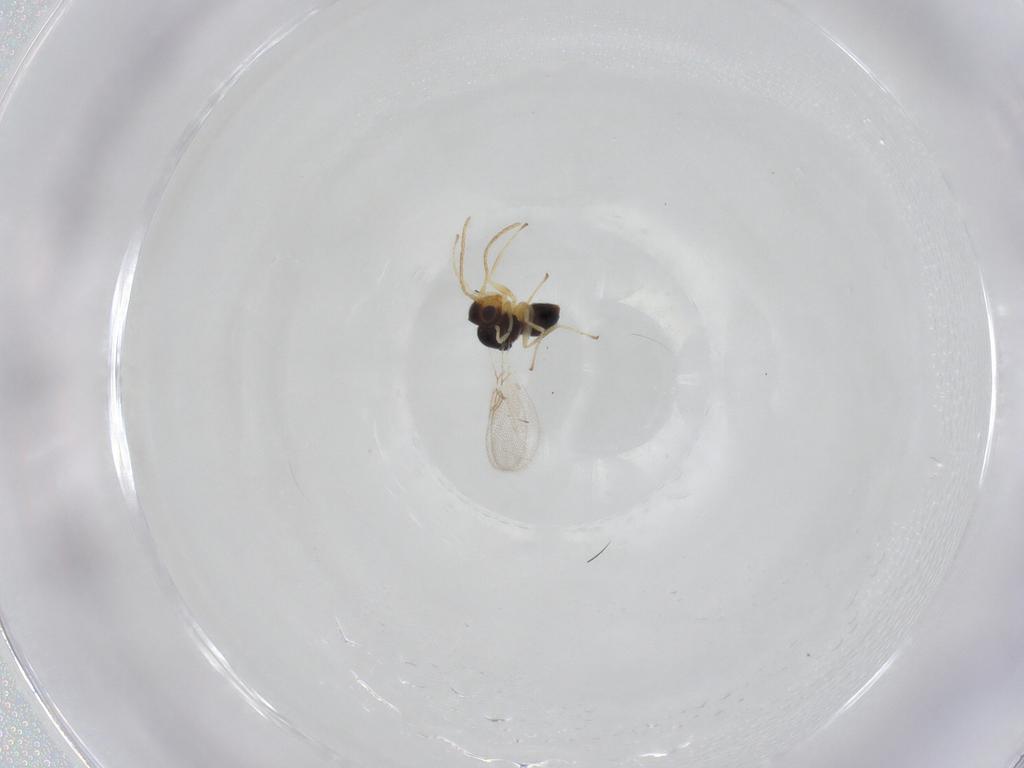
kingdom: Animalia
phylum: Arthropoda
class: Insecta
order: Hymenoptera
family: Figitidae
